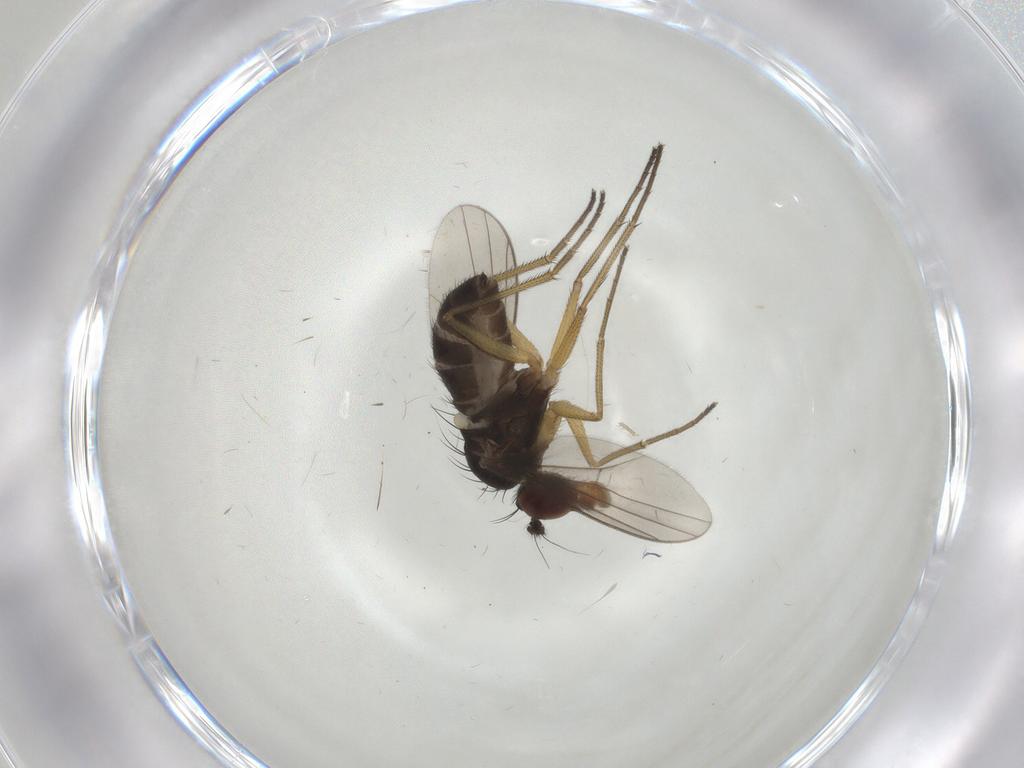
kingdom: Animalia
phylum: Arthropoda
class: Insecta
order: Diptera
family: Dolichopodidae
